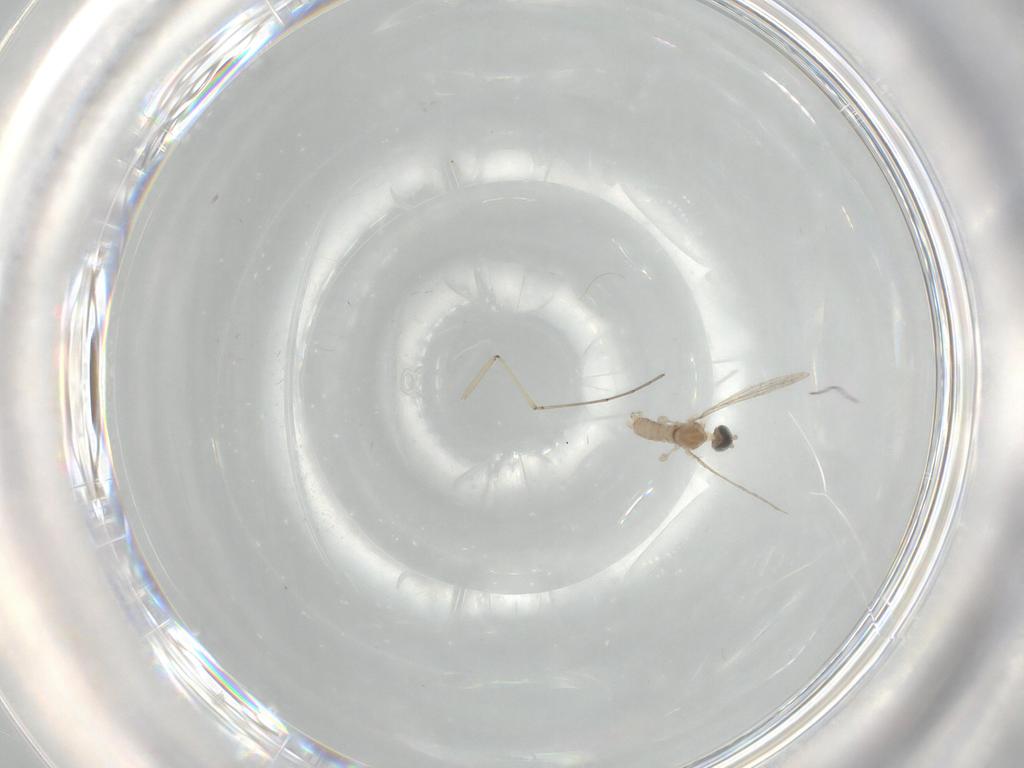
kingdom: Animalia
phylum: Arthropoda
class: Insecta
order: Diptera
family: Cecidomyiidae
